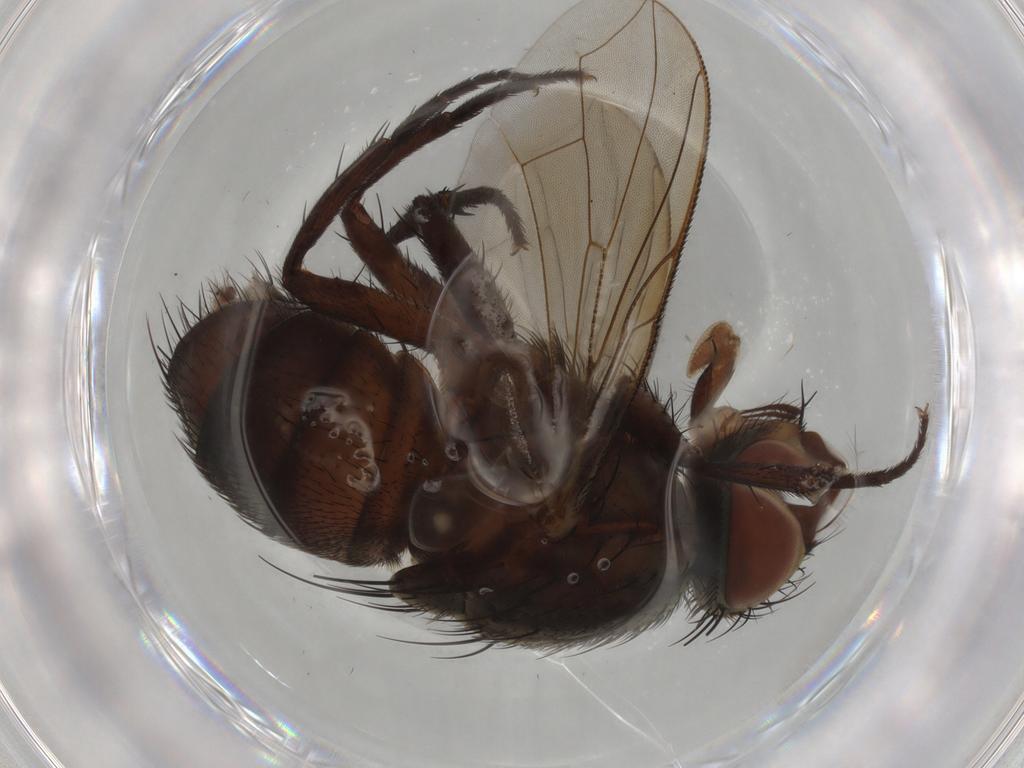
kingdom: Animalia
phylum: Arthropoda
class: Insecta
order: Diptera
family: Sarcophagidae
